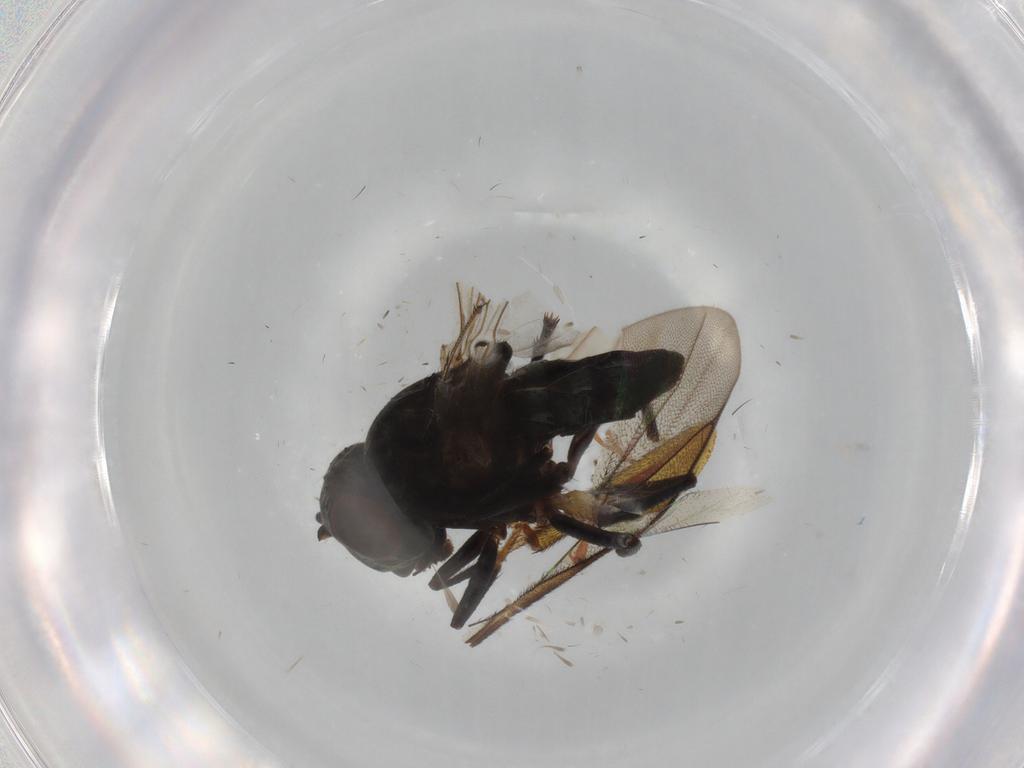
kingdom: Animalia
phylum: Arthropoda
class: Insecta
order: Diptera
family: Ephydridae
